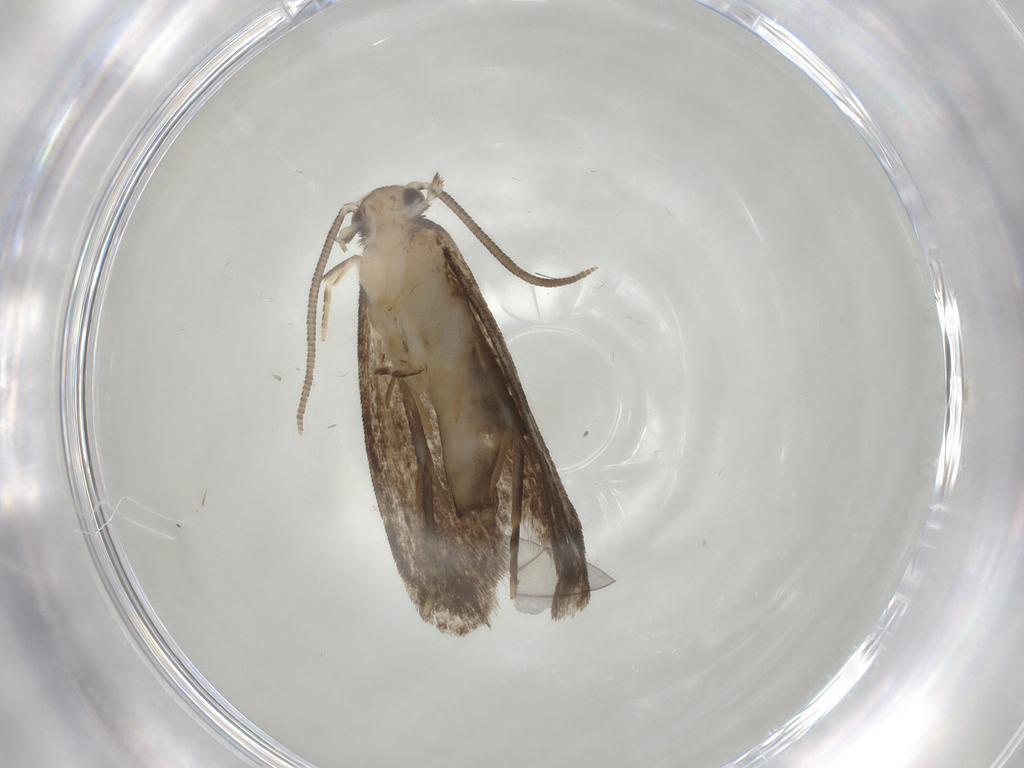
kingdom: Animalia
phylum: Arthropoda
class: Insecta
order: Lepidoptera
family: Dryadaulidae
